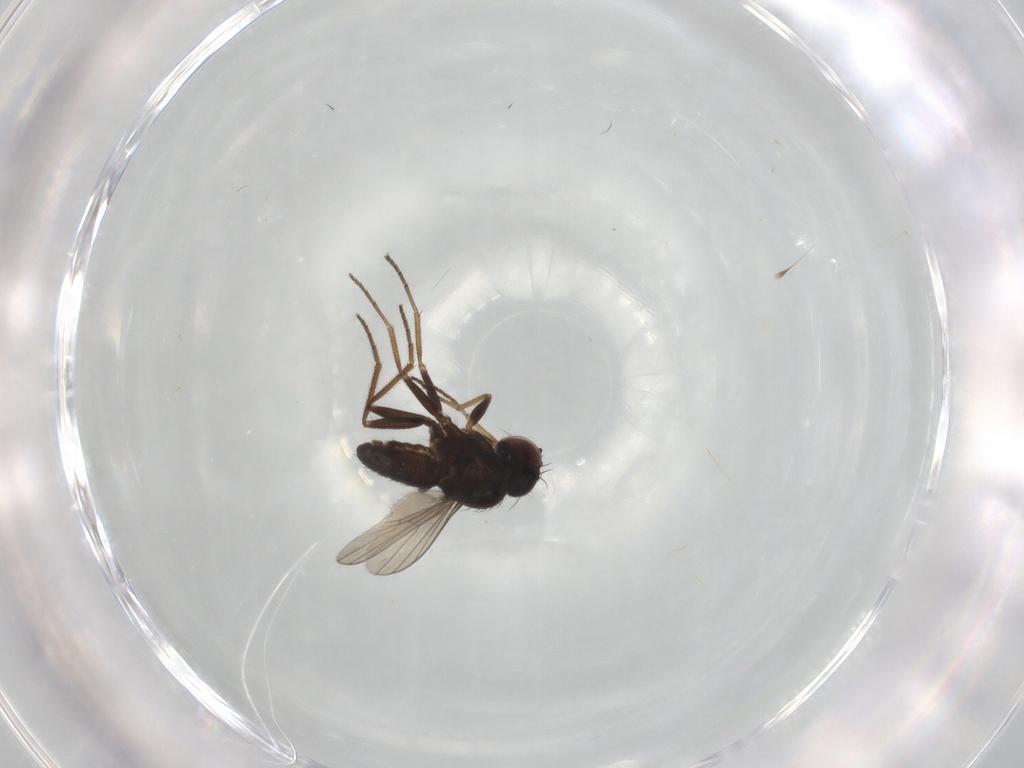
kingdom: Animalia
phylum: Arthropoda
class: Insecta
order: Diptera
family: Dolichopodidae
